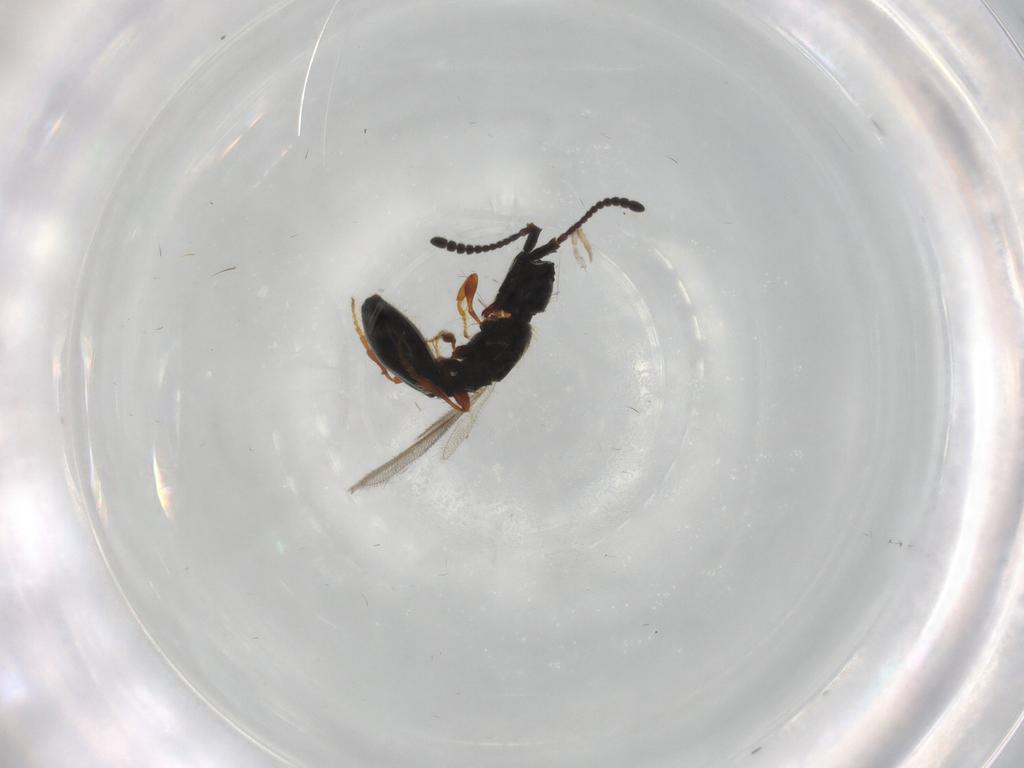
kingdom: Animalia
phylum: Arthropoda
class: Insecta
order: Hymenoptera
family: Diapriidae
